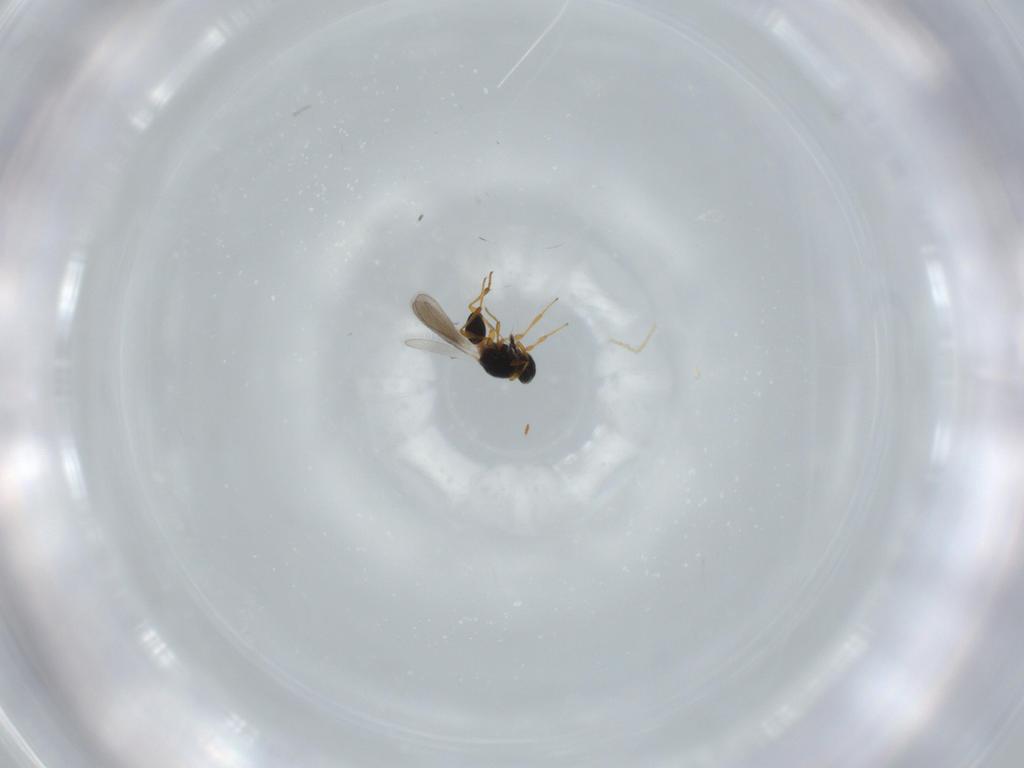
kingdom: Animalia
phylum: Arthropoda
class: Insecta
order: Hymenoptera
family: Platygastridae
